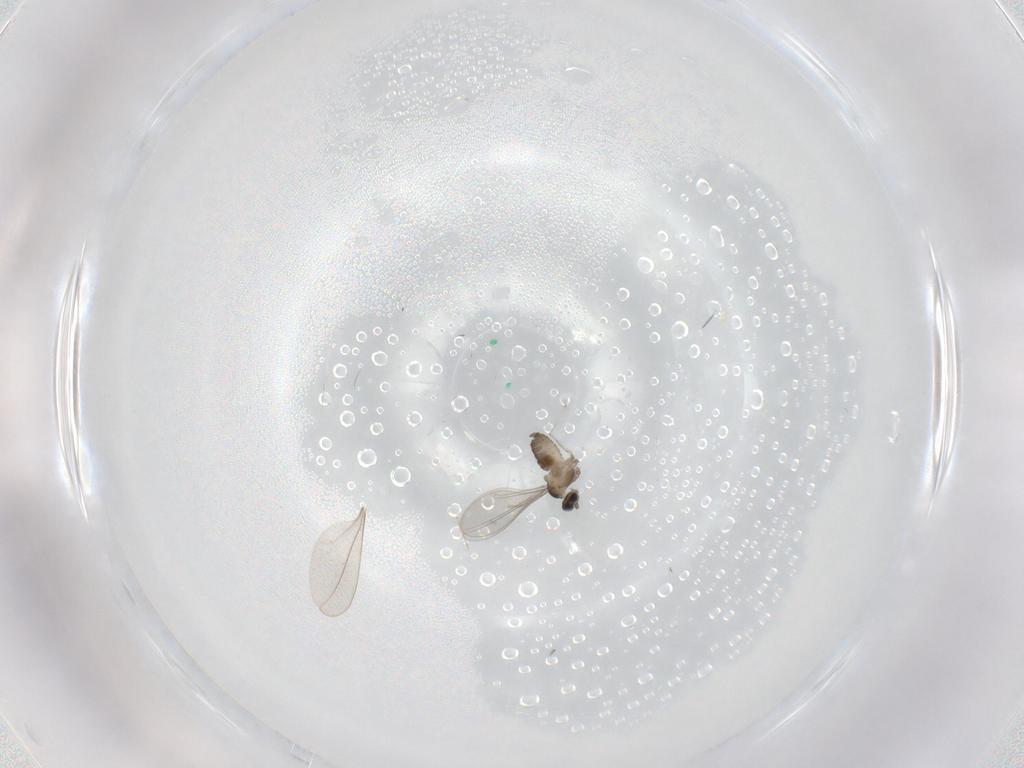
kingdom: Animalia
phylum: Arthropoda
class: Insecta
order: Diptera
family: Cecidomyiidae
